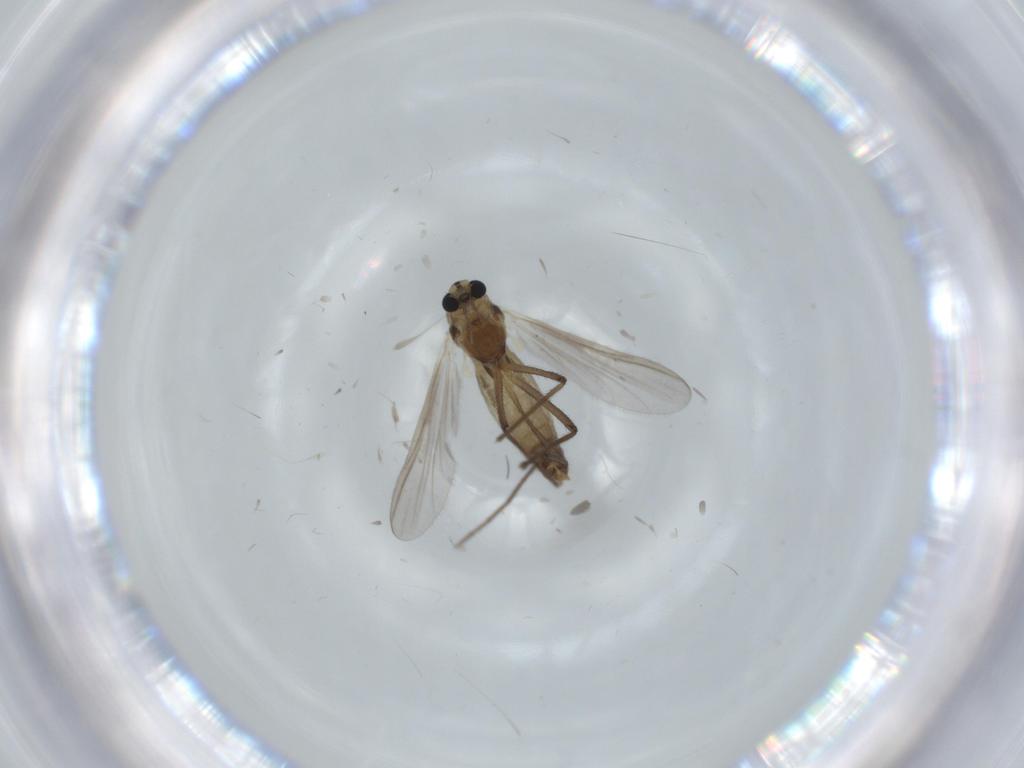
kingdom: Animalia
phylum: Arthropoda
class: Insecta
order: Diptera
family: Chironomidae
